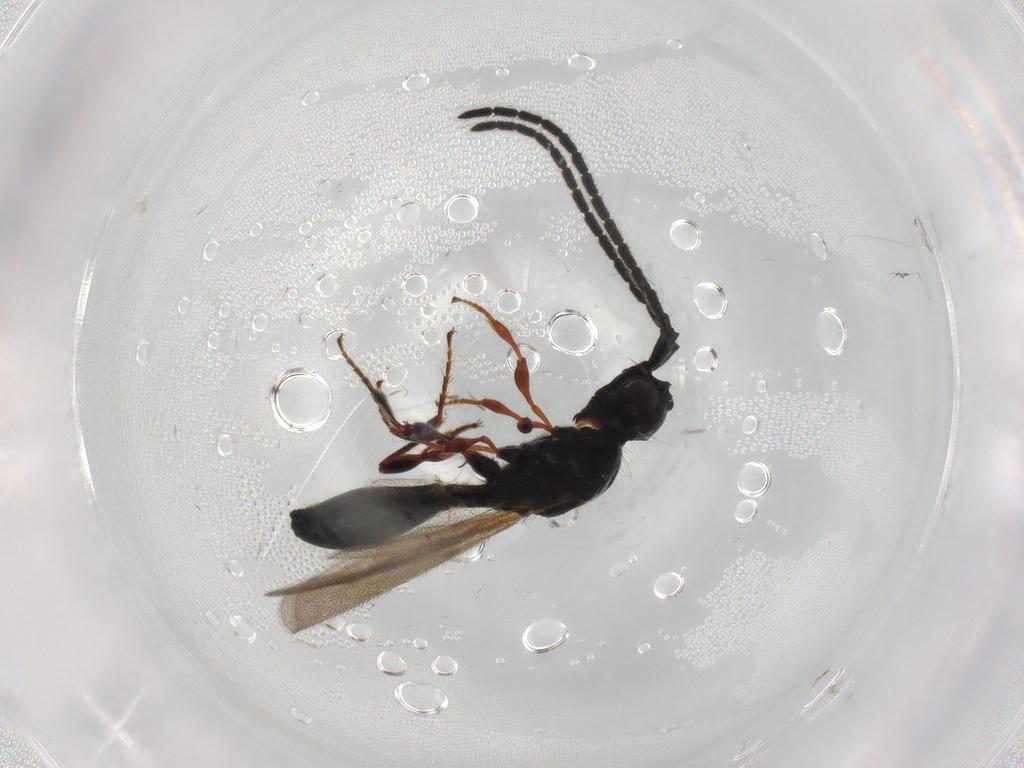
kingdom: Animalia
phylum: Arthropoda
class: Insecta
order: Hymenoptera
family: Diapriidae
